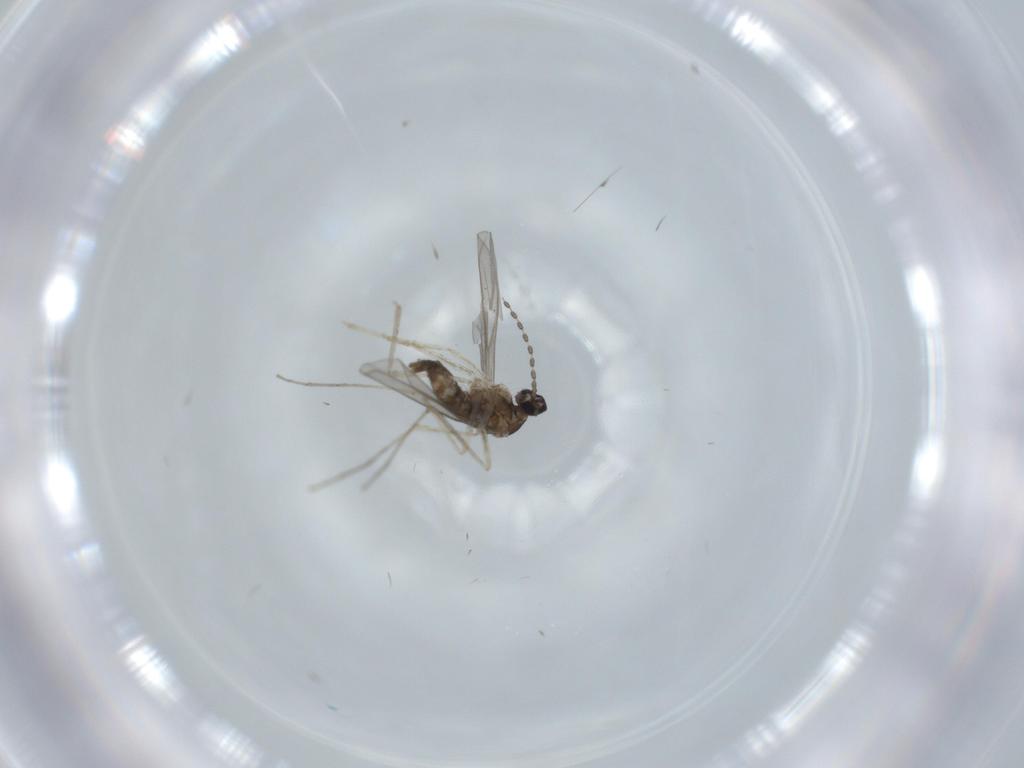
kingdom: Animalia
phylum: Arthropoda
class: Insecta
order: Diptera
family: Cecidomyiidae
